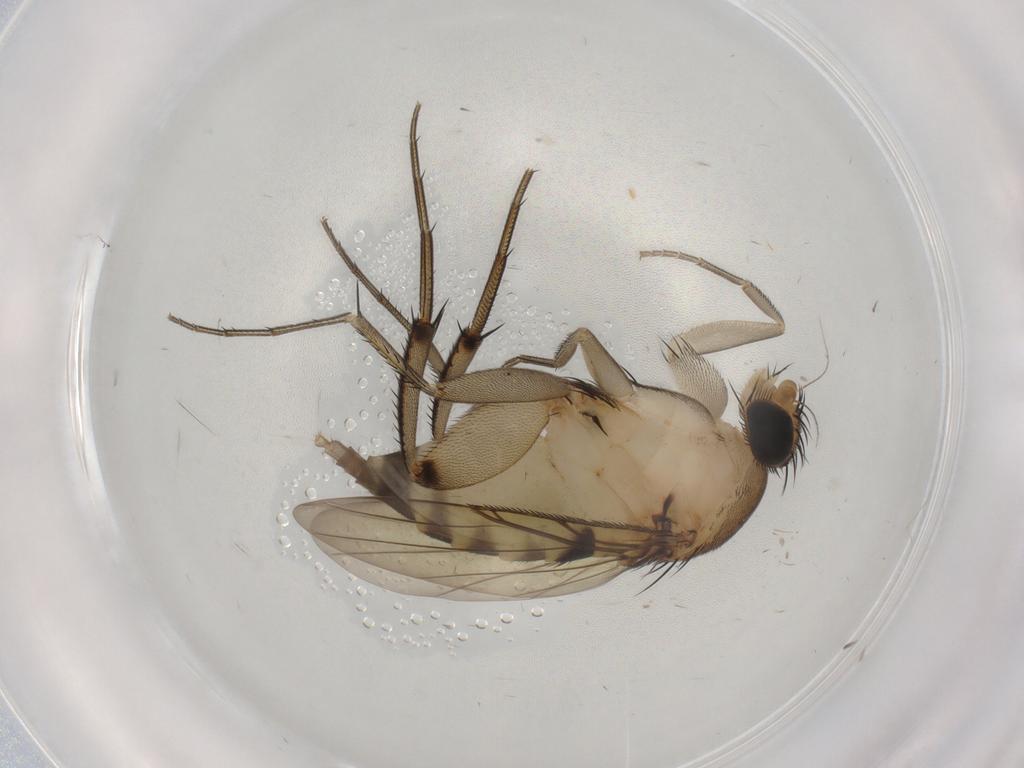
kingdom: Animalia
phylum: Arthropoda
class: Insecta
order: Diptera
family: Phoridae
